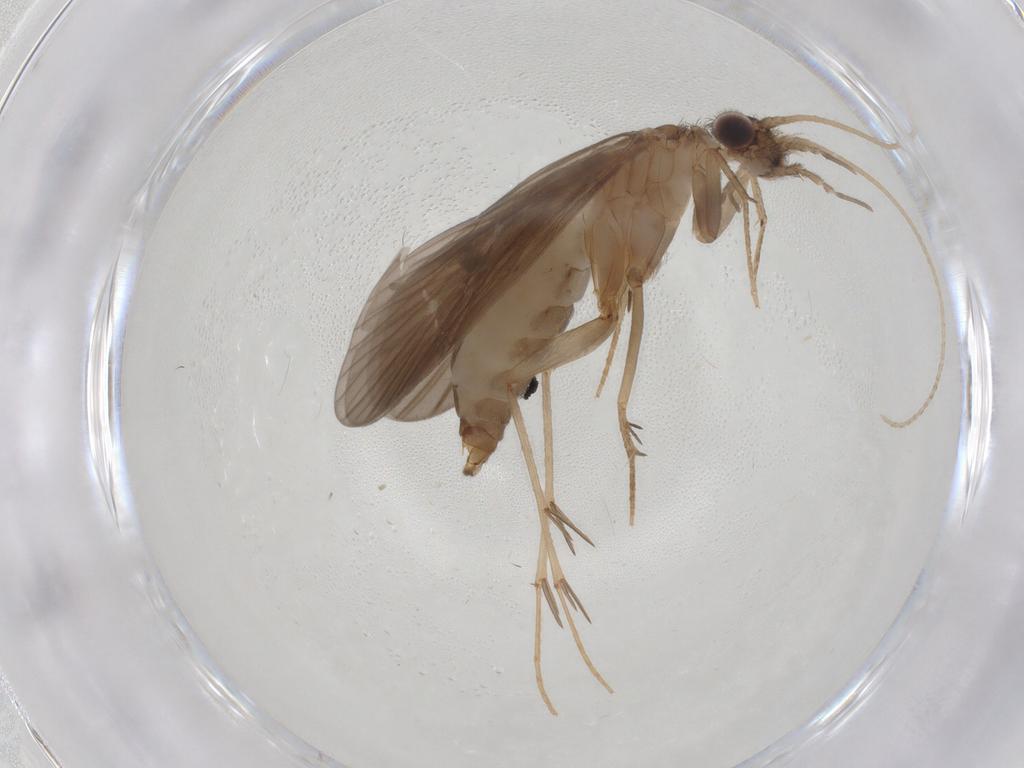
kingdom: Animalia
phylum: Arthropoda
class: Insecta
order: Trichoptera
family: Philopotamidae
